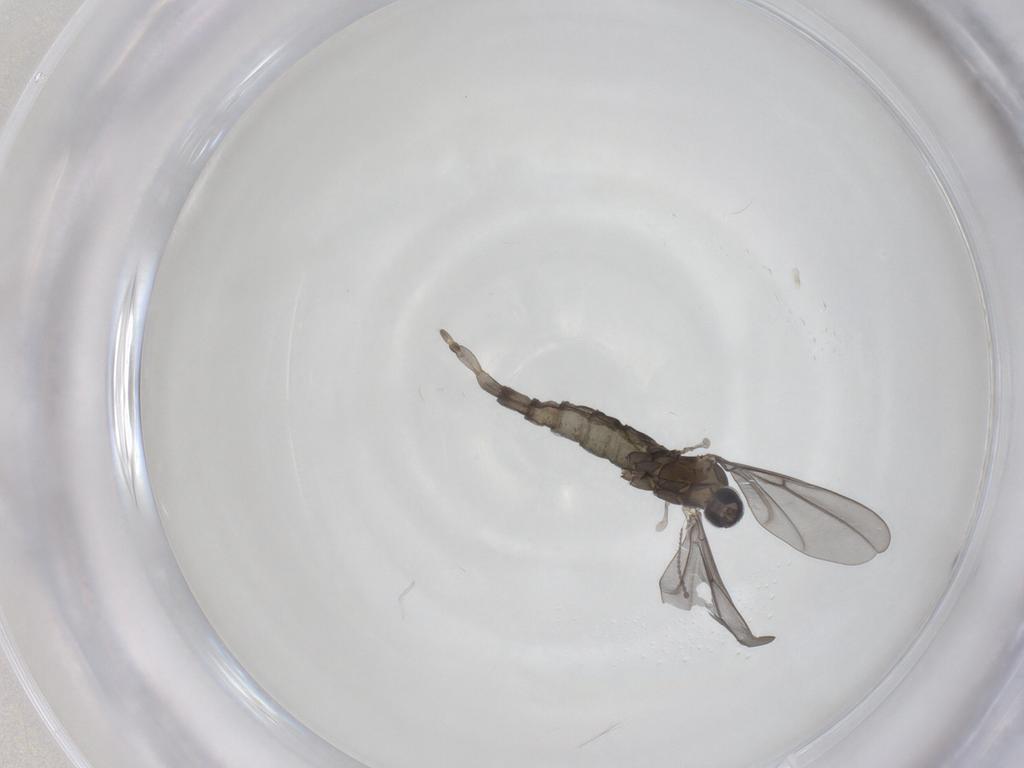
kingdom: Animalia
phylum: Arthropoda
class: Insecta
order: Diptera
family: Cecidomyiidae
